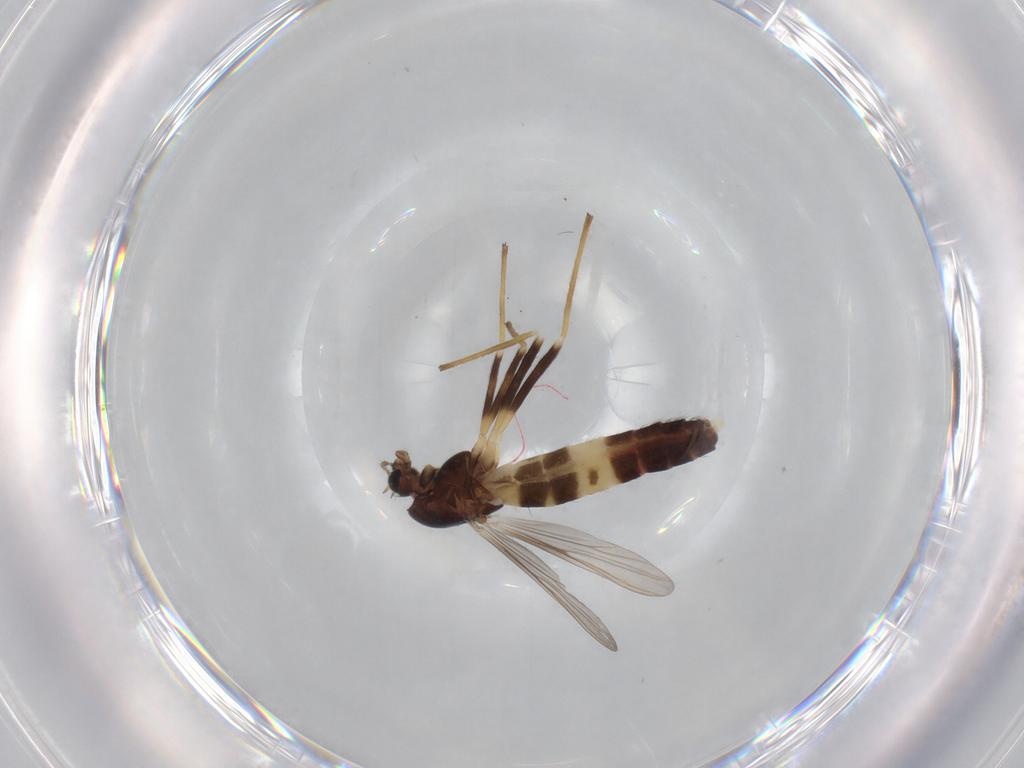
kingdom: Animalia
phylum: Arthropoda
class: Insecta
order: Diptera
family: Chironomidae
